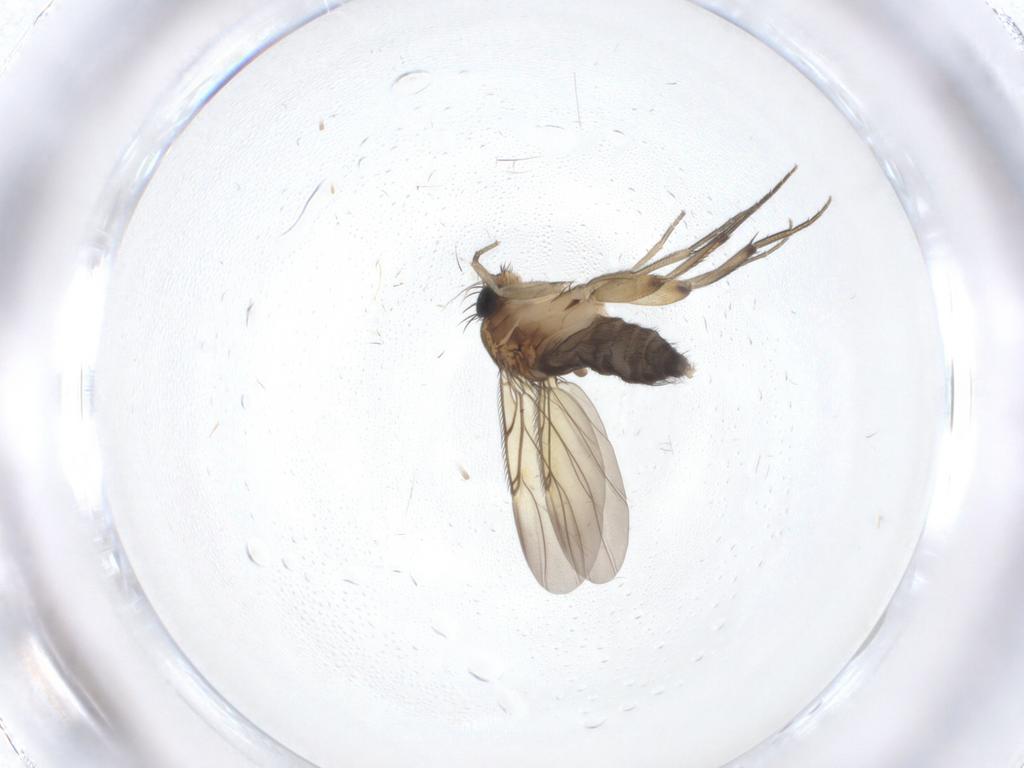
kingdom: Animalia
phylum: Arthropoda
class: Insecta
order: Diptera
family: Phoridae
